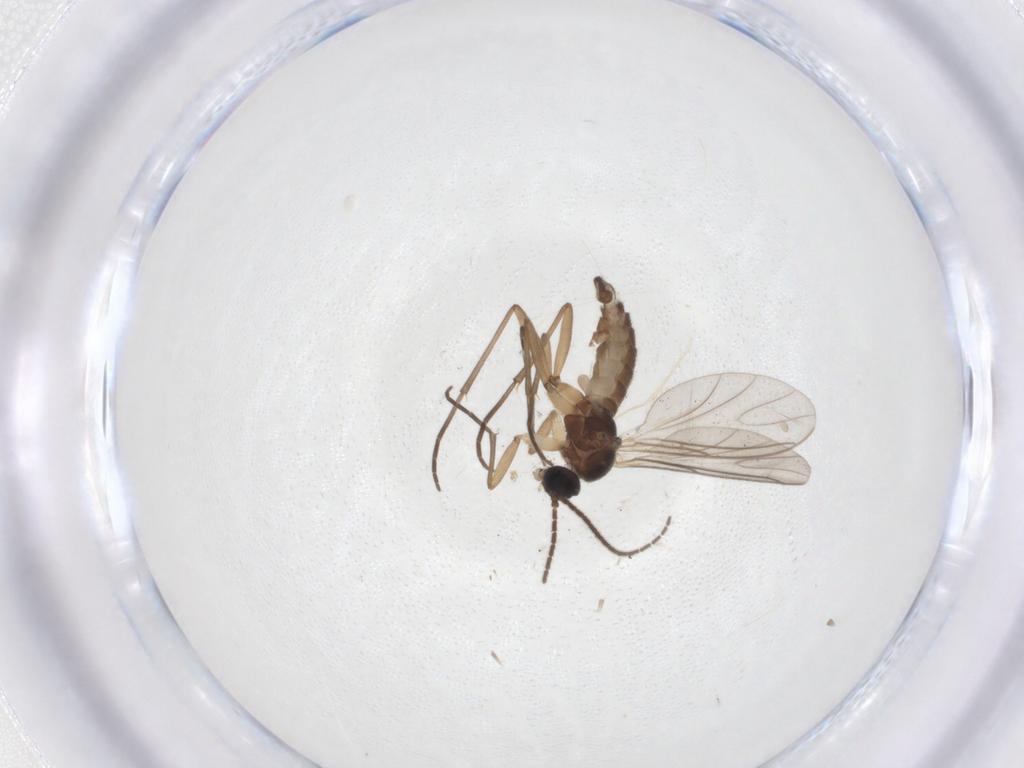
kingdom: Animalia
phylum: Arthropoda
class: Insecta
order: Diptera
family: Sciaridae
